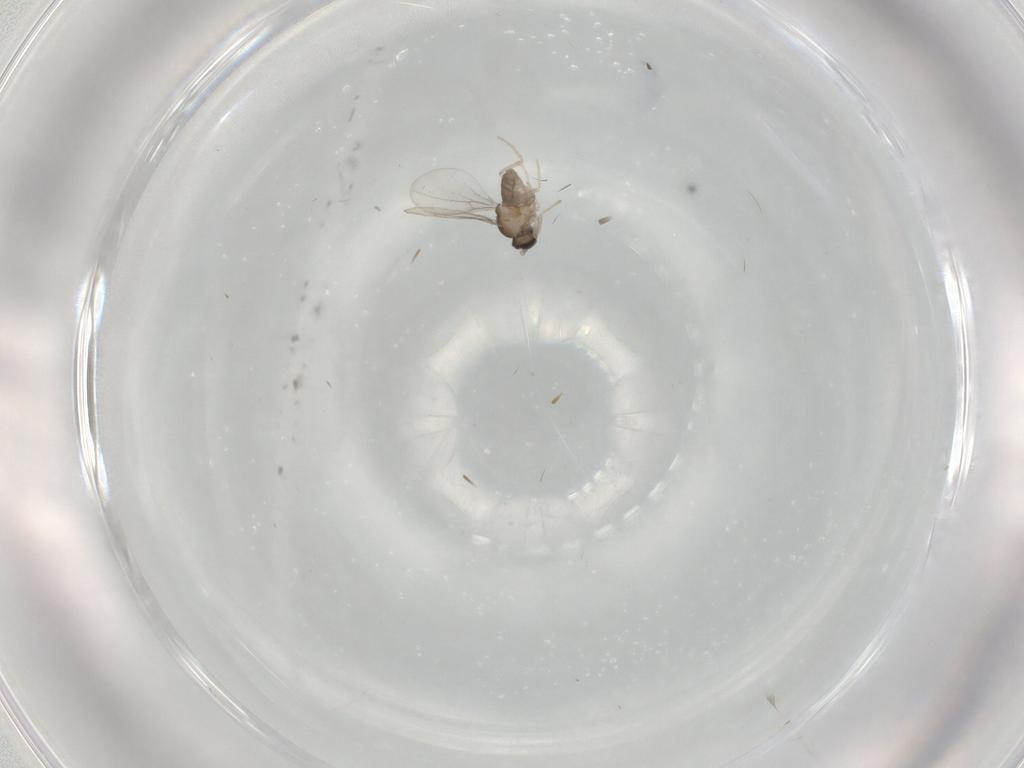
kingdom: Animalia
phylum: Arthropoda
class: Insecta
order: Diptera
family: Cecidomyiidae
